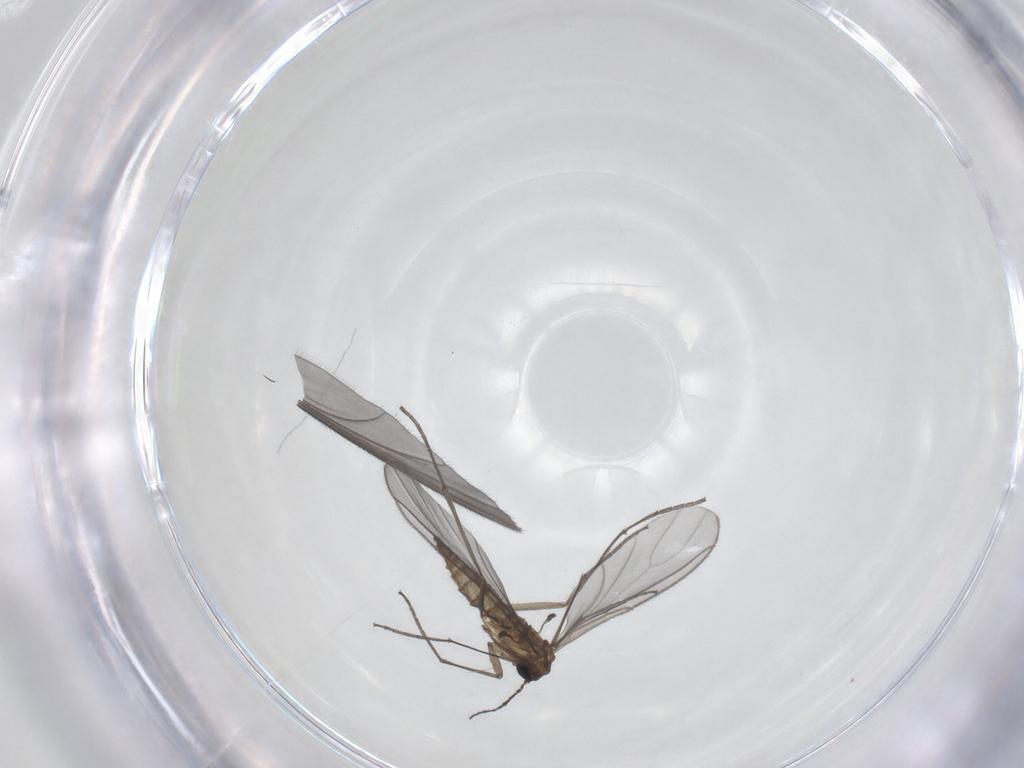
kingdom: Animalia
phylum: Arthropoda
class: Insecta
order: Diptera
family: Sciaridae
